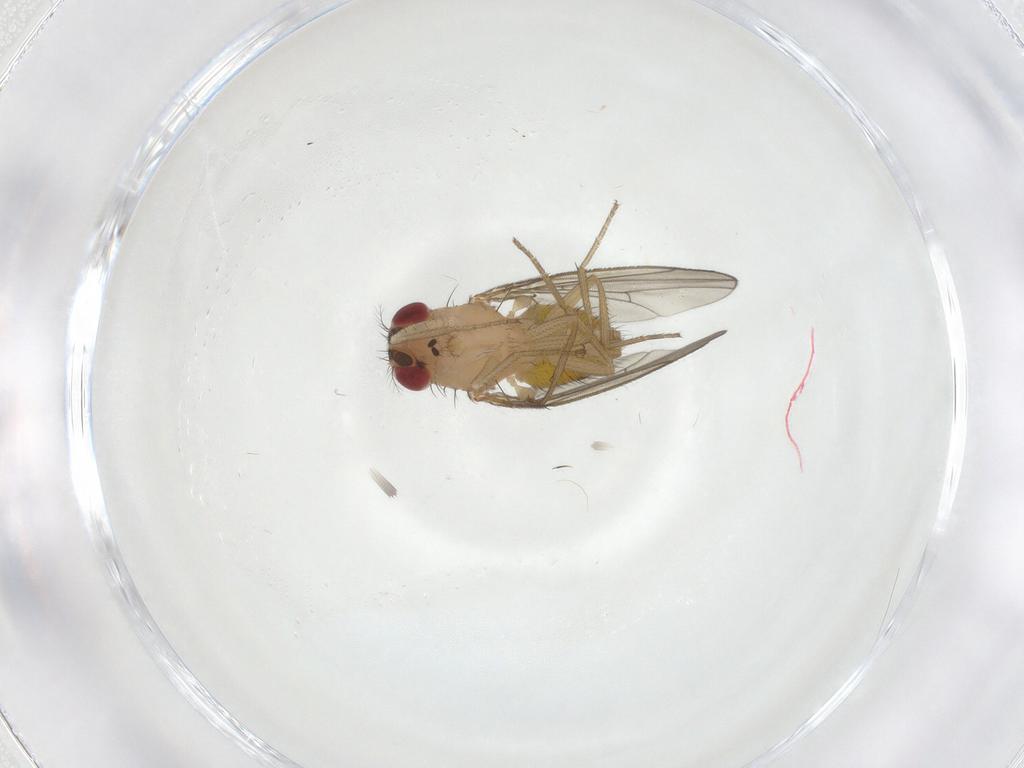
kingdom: Animalia
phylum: Arthropoda
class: Insecta
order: Diptera
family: Drosophilidae
